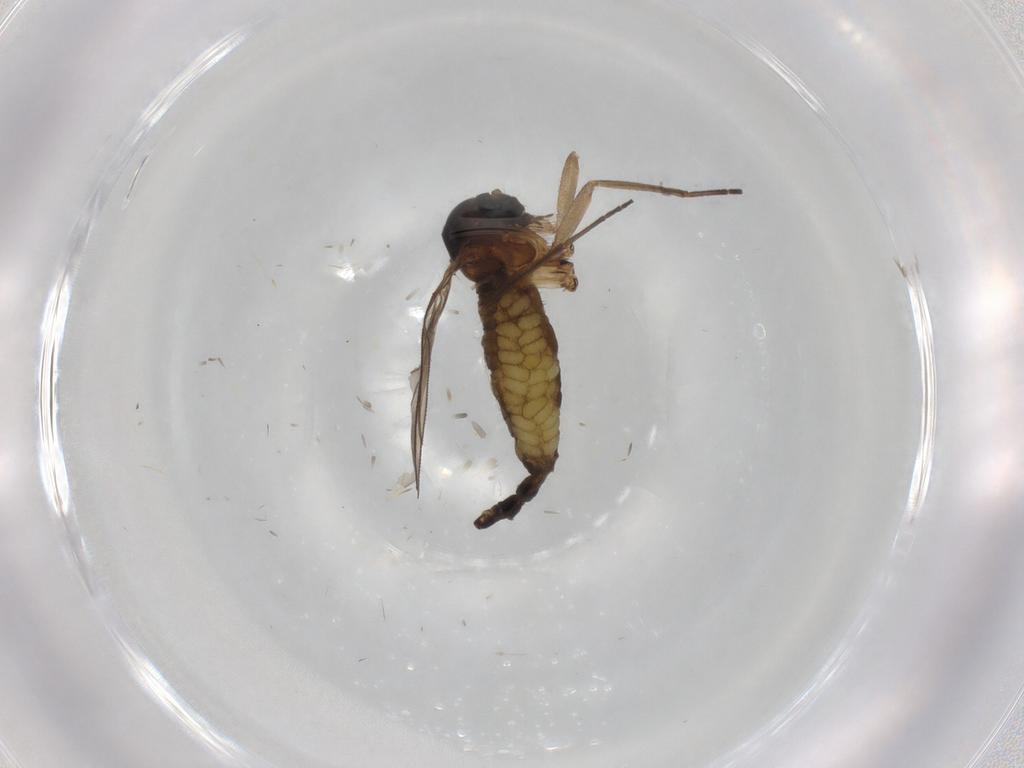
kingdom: Animalia
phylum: Arthropoda
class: Insecta
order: Diptera
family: Sciaridae
